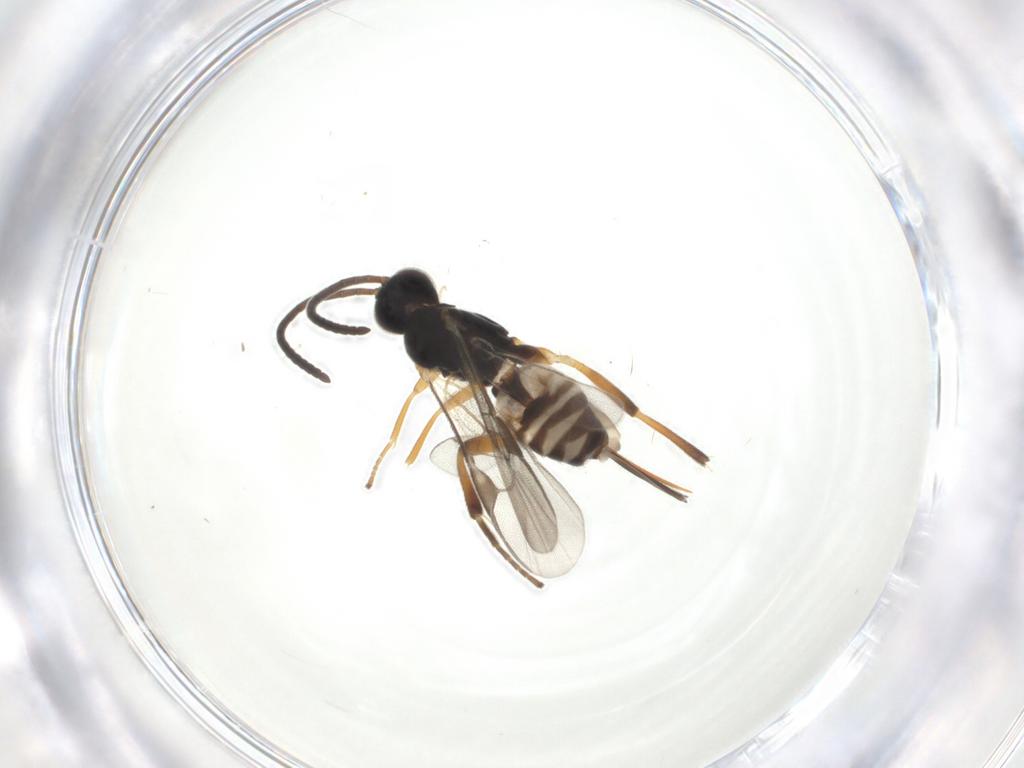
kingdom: Animalia
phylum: Arthropoda
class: Insecta
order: Hymenoptera
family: Braconidae
